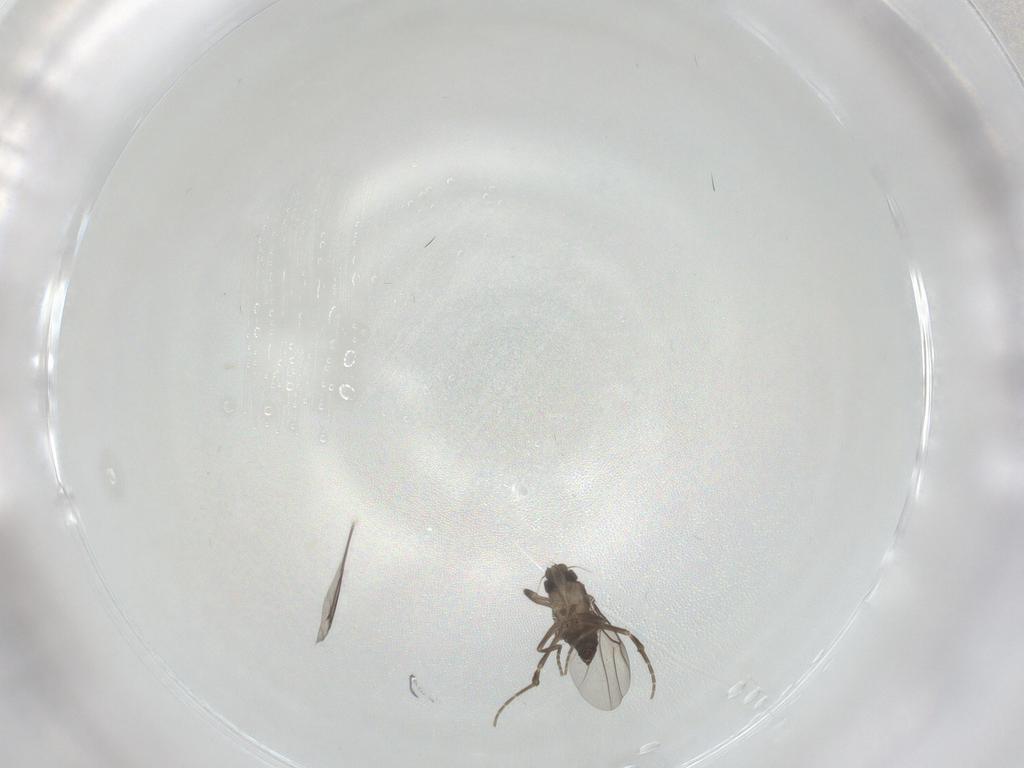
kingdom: Animalia
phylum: Arthropoda
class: Insecta
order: Diptera
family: Phoridae
